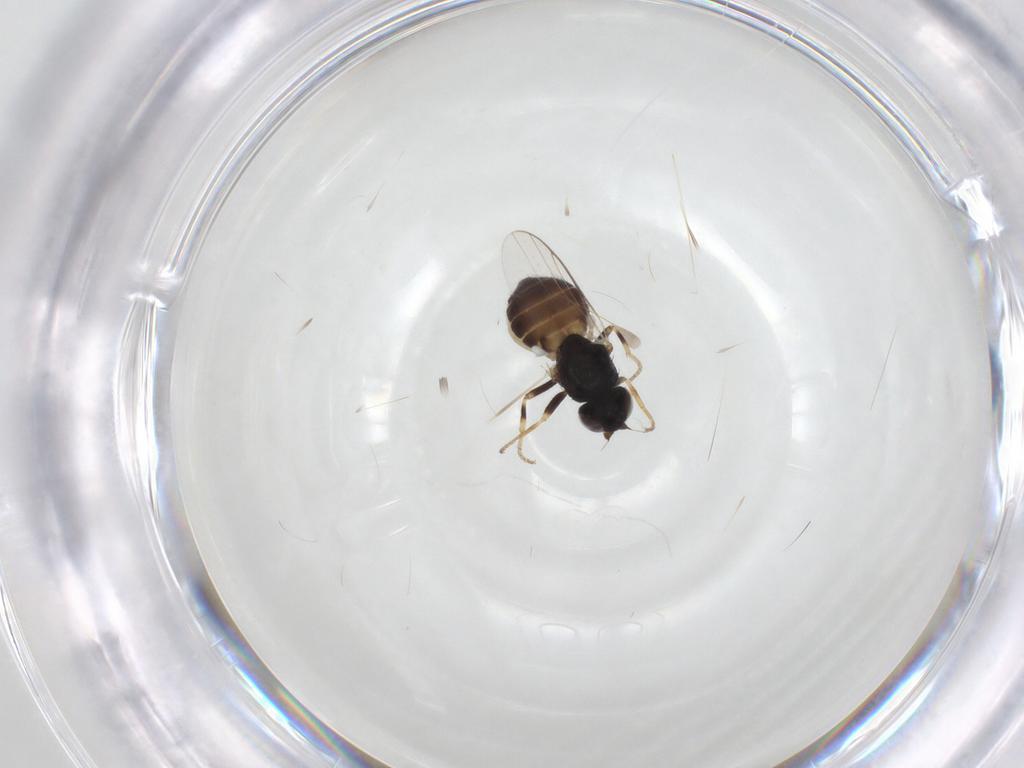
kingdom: Animalia
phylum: Arthropoda
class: Insecta
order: Diptera
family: Chloropidae
